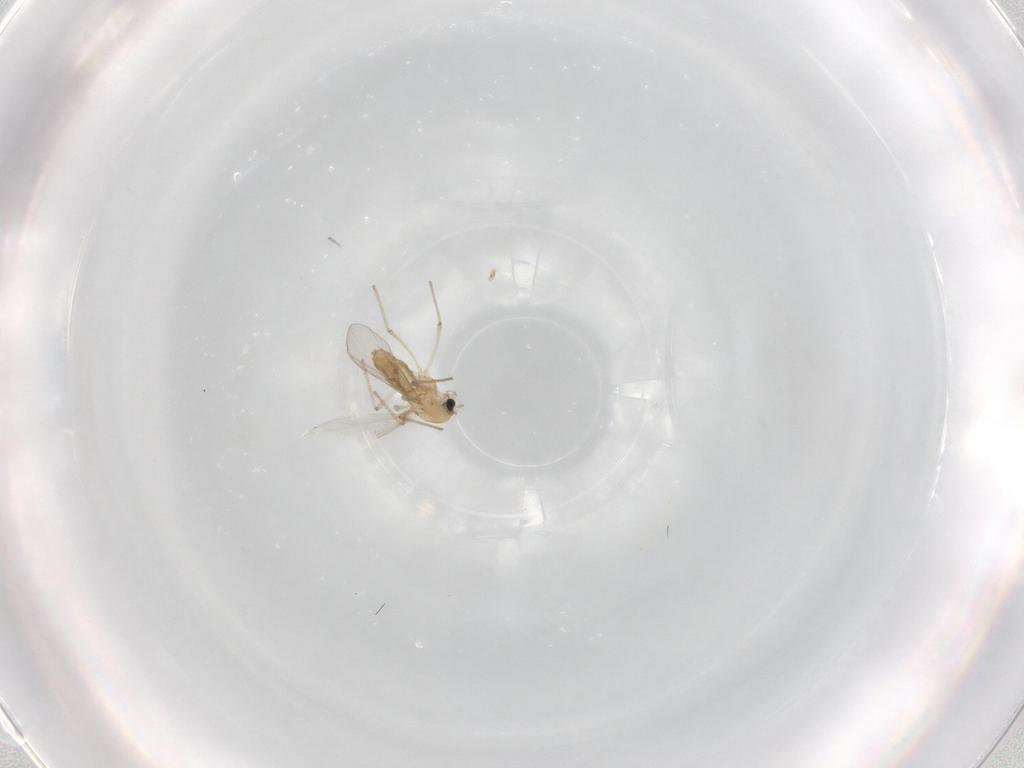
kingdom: Animalia
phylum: Arthropoda
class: Insecta
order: Diptera
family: Chironomidae
